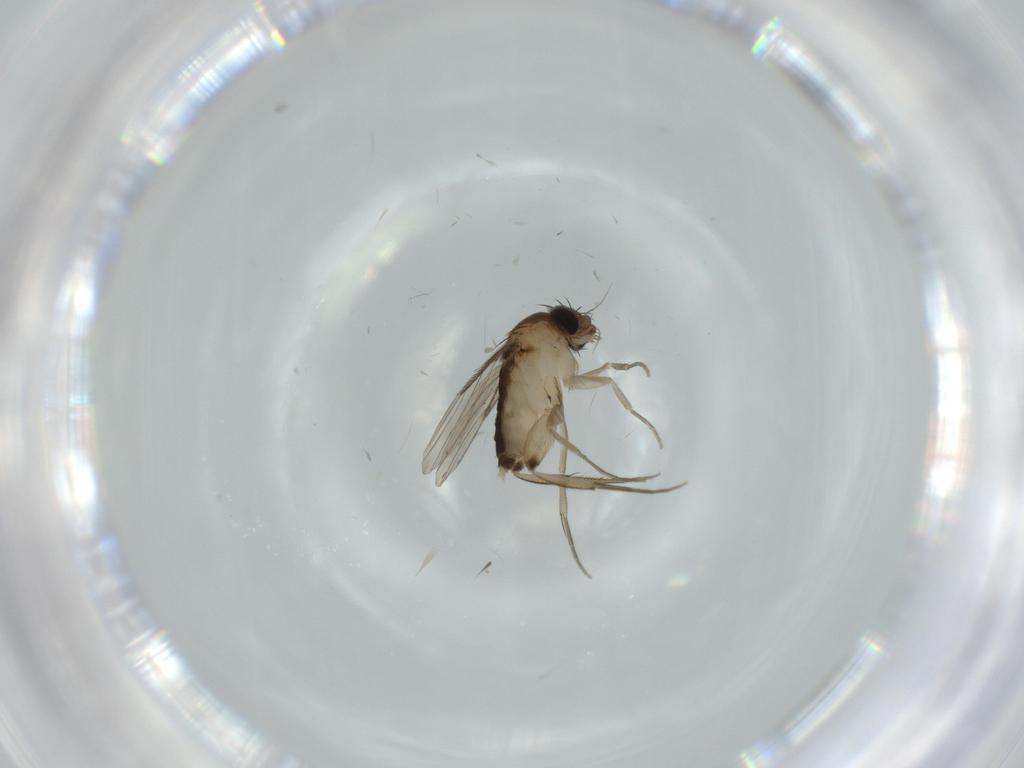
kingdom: Animalia
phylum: Arthropoda
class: Insecta
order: Diptera
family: Phoridae
